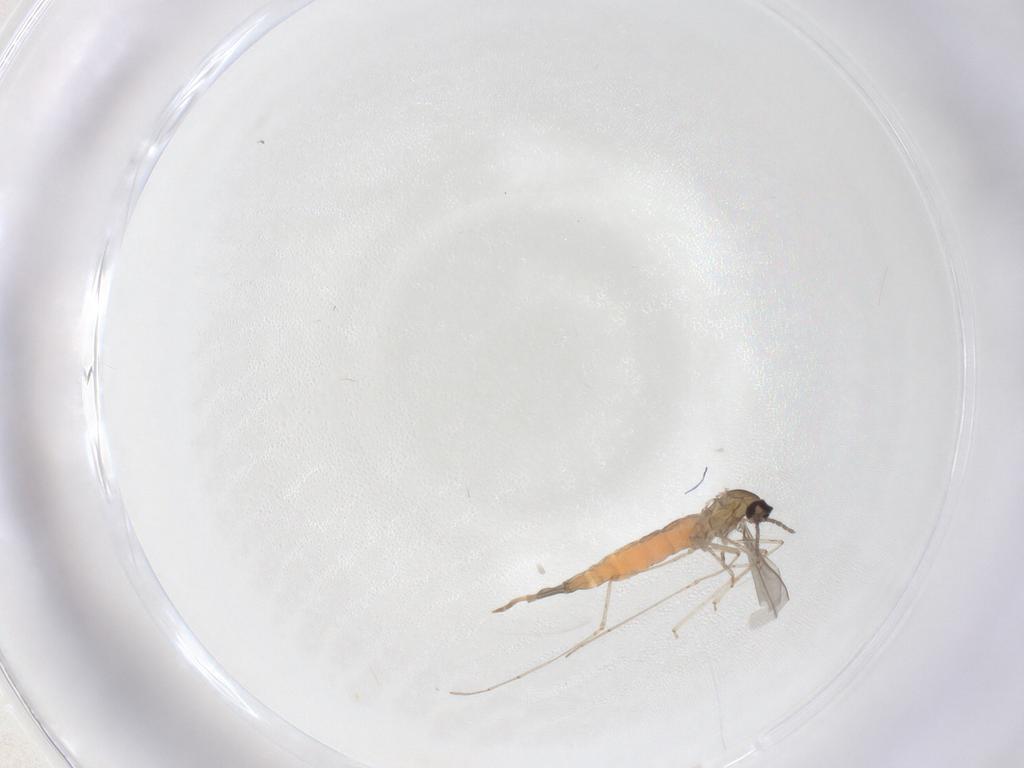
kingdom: Animalia
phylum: Arthropoda
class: Insecta
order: Diptera
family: Cecidomyiidae
